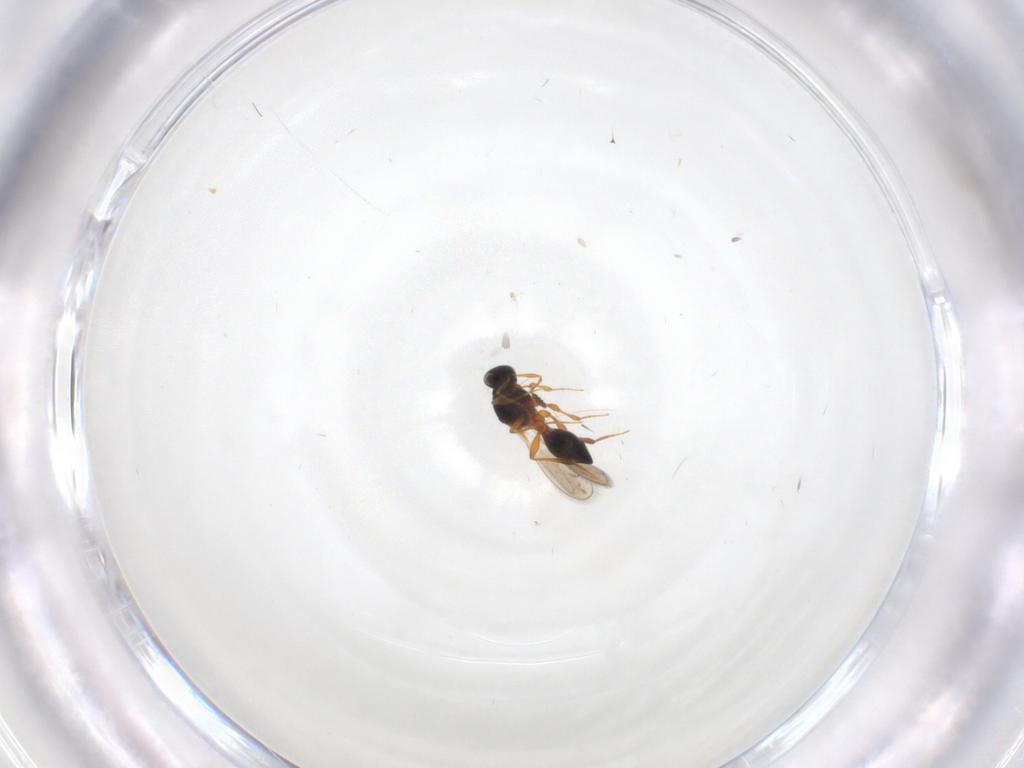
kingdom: Animalia
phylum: Arthropoda
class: Insecta
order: Hymenoptera
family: Platygastridae
